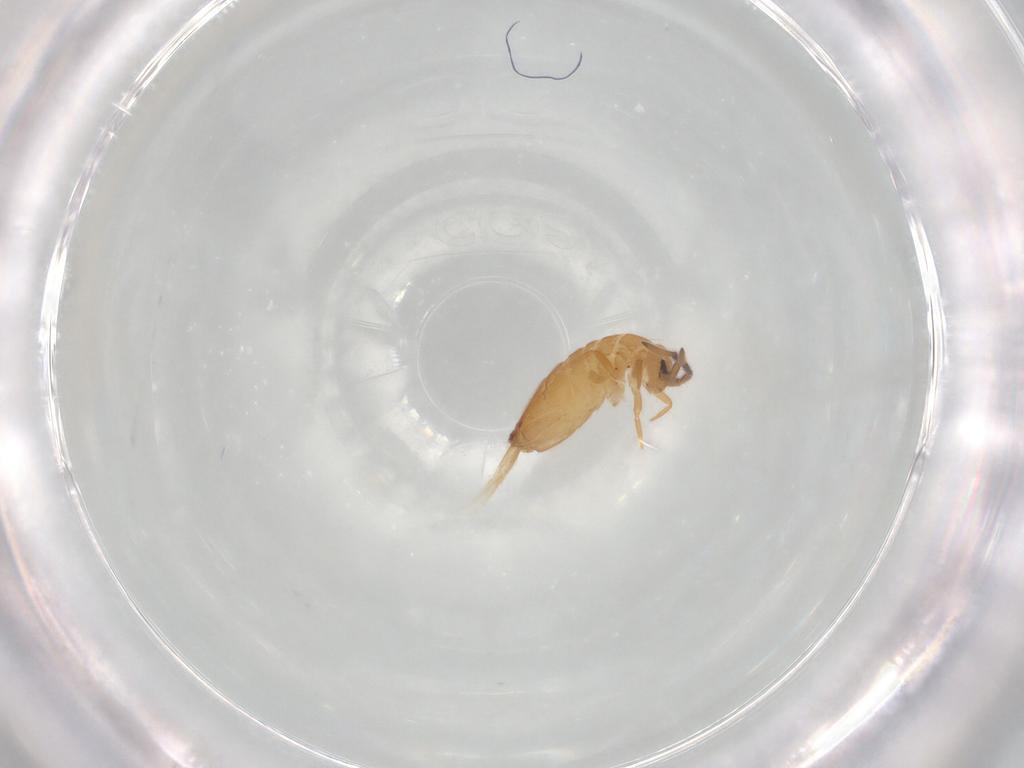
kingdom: Animalia
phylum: Arthropoda
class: Collembola
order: Entomobryomorpha
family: Entomobryidae
